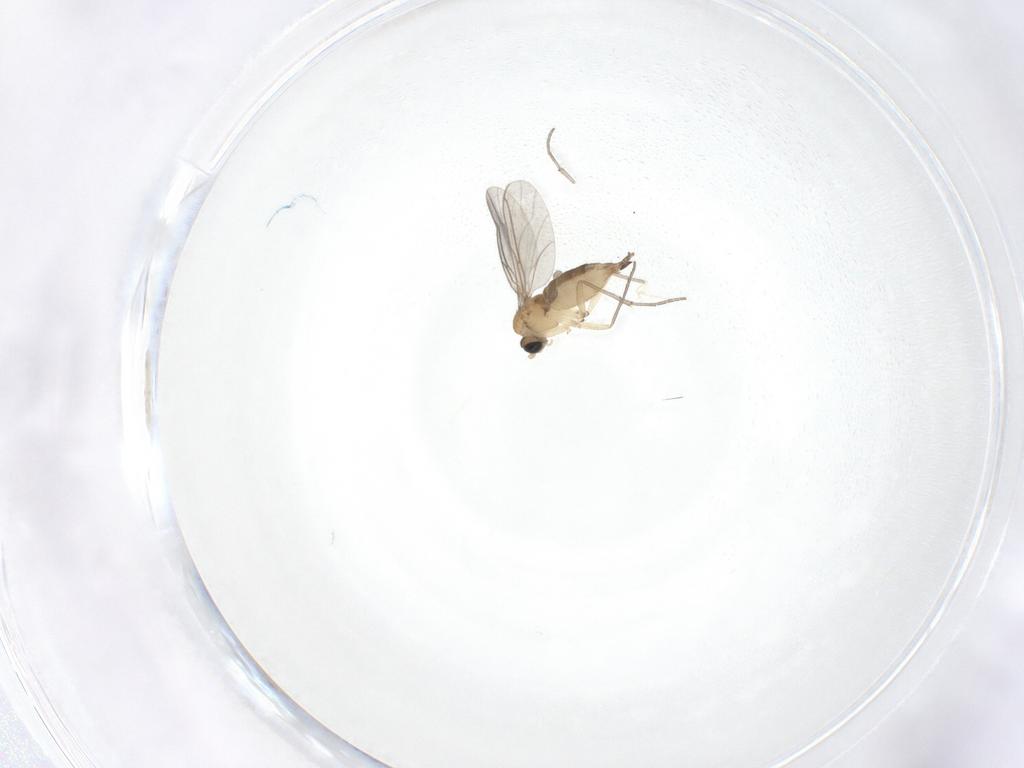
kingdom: Animalia
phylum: Arthropoda
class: Insecta
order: Diptera
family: Sciaridae
